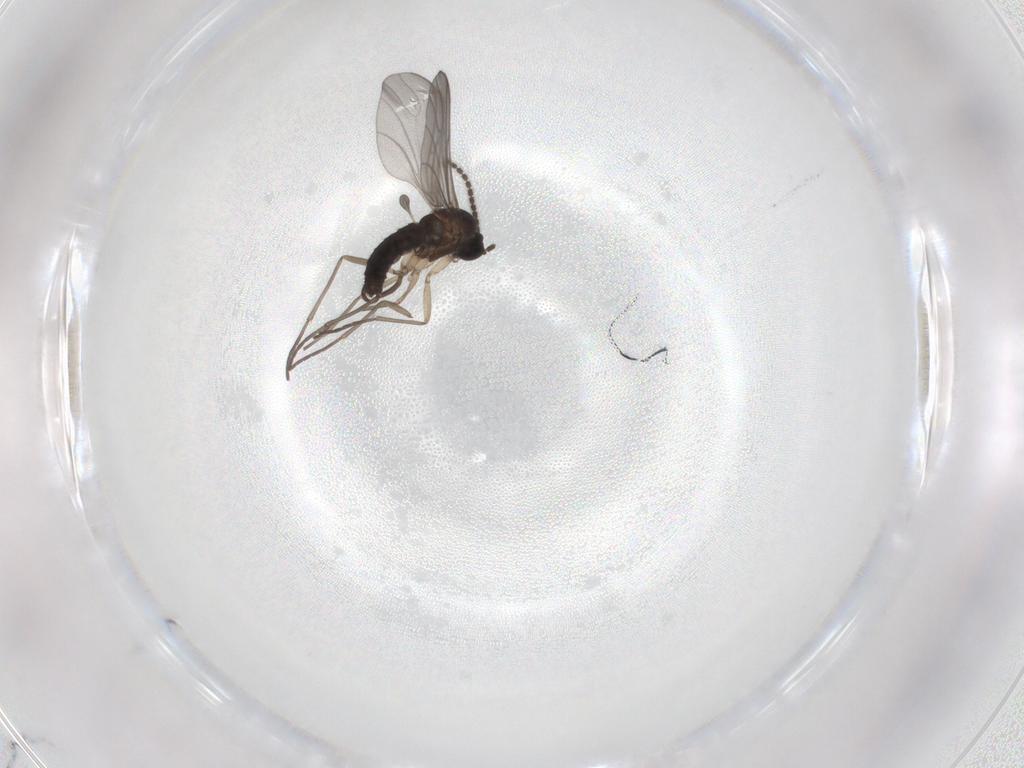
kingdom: Animalia
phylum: Arthropoda
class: Insecta
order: Diptera
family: Sciaridae
